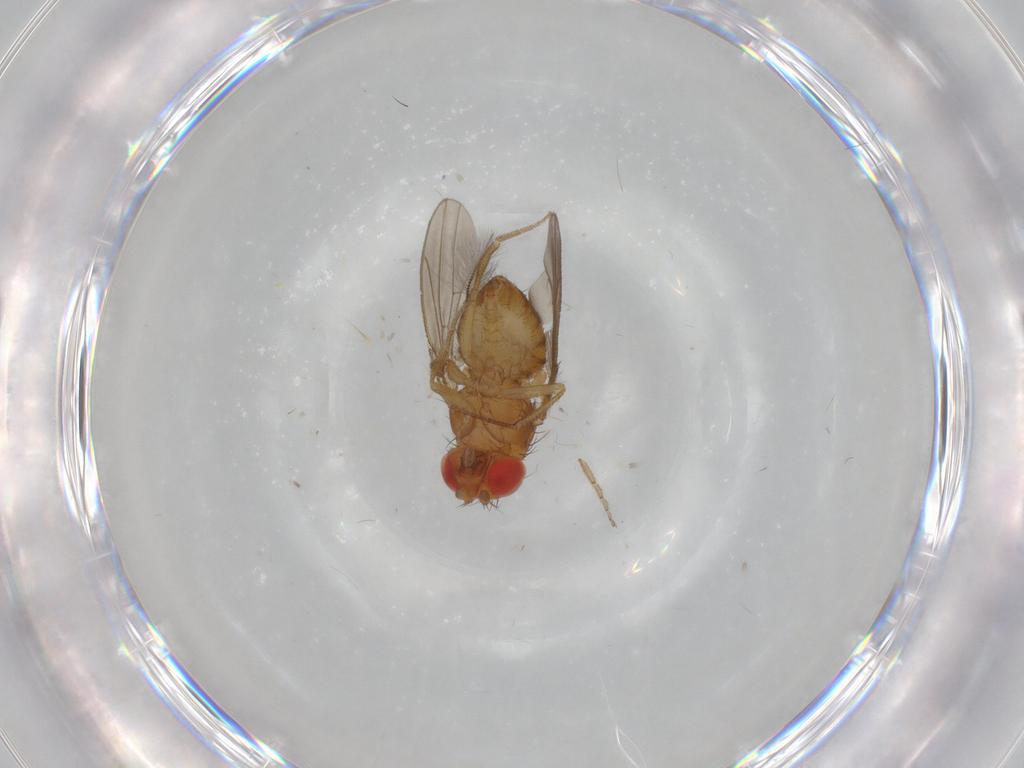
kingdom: Animalia
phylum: Arthropoda
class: Insecta
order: Diptera
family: Drosophilidae
